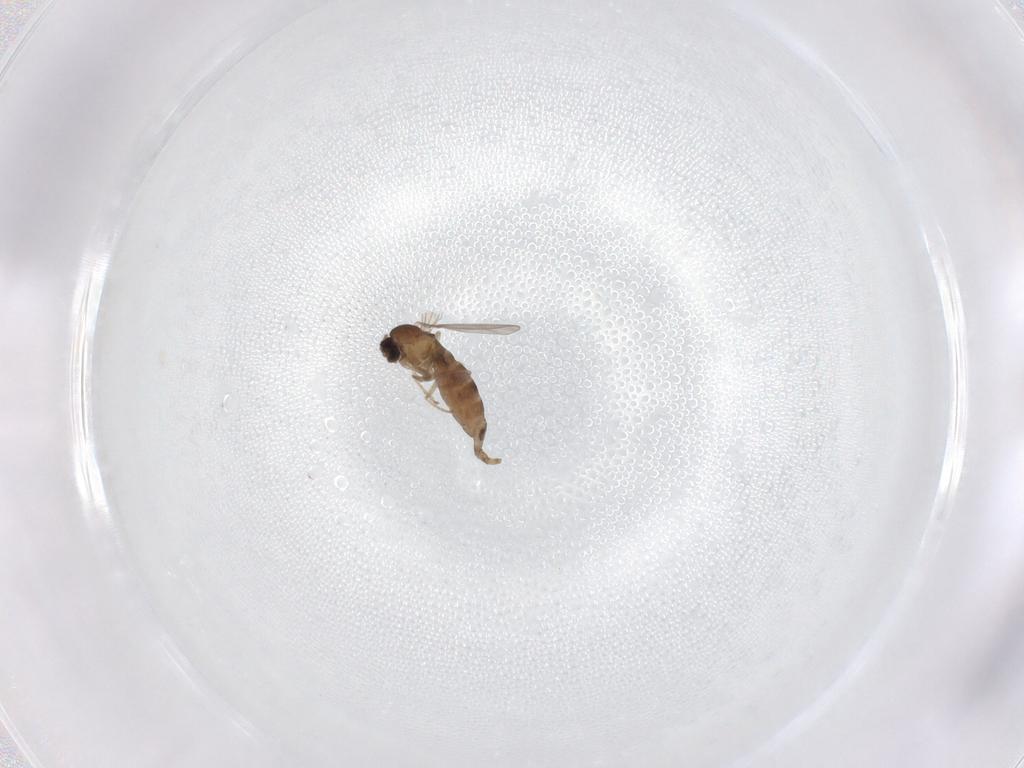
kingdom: Animalia
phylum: Arthropoda
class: Insecta
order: Diptera
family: Cecidomyiidae
